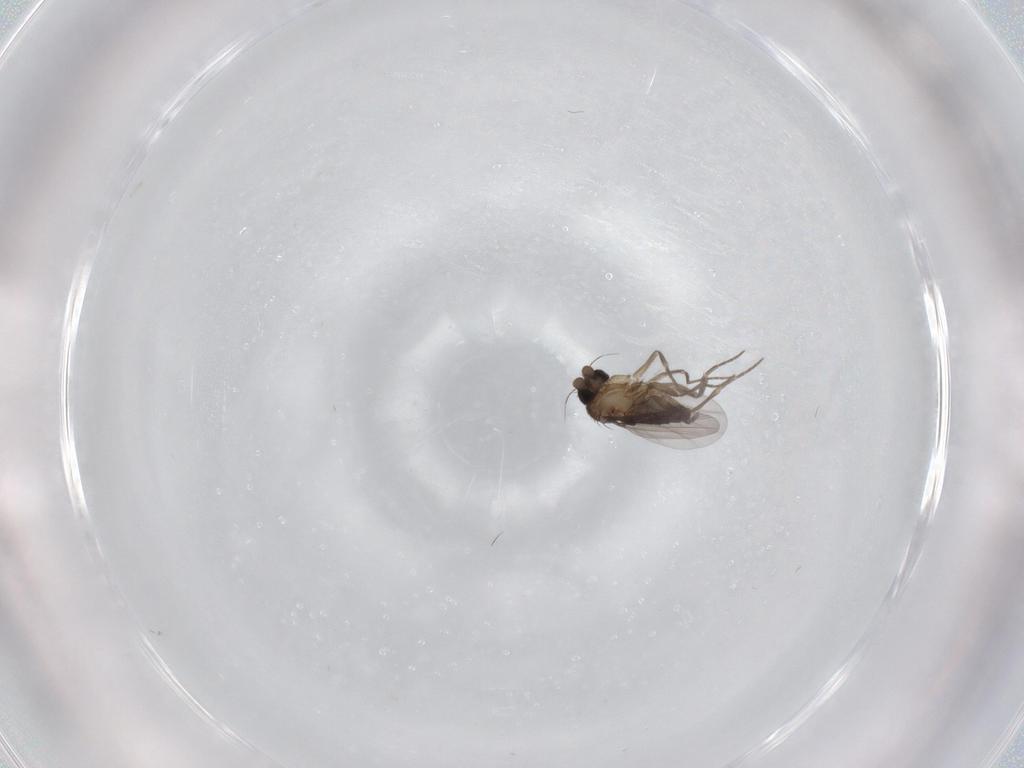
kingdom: Animalia
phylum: Arthropoda
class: Insecta
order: Diptera
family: Phoridae
